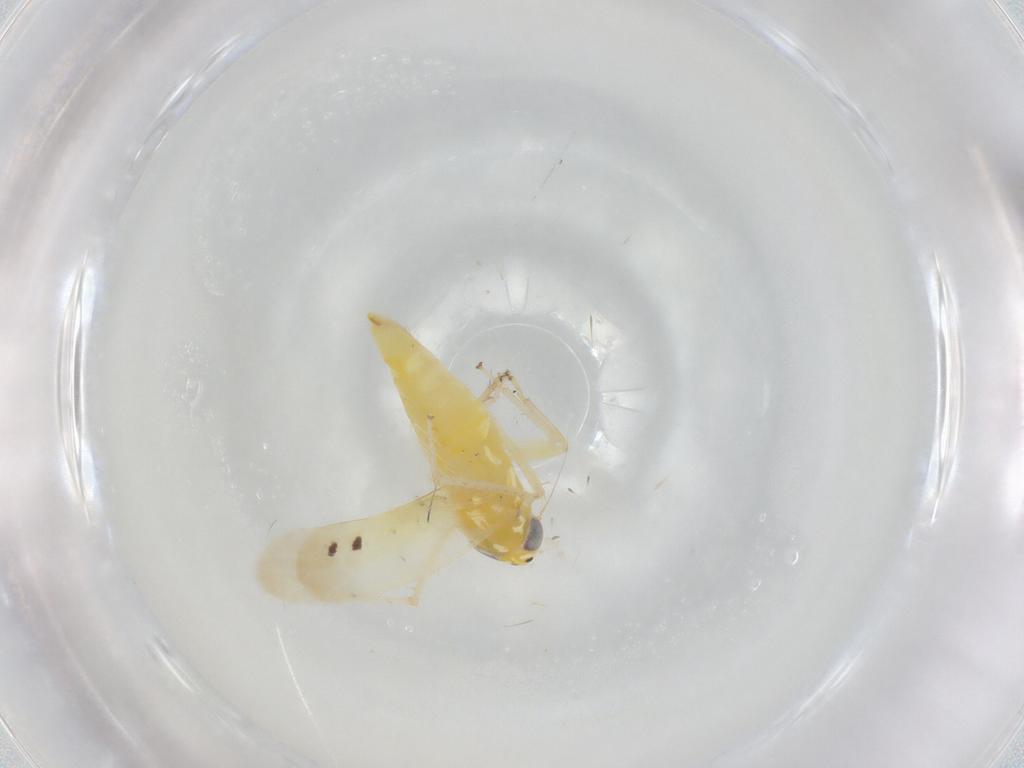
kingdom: Animalia
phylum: Arthropoda
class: Insecta
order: Hemiptera
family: Cicadellidae
